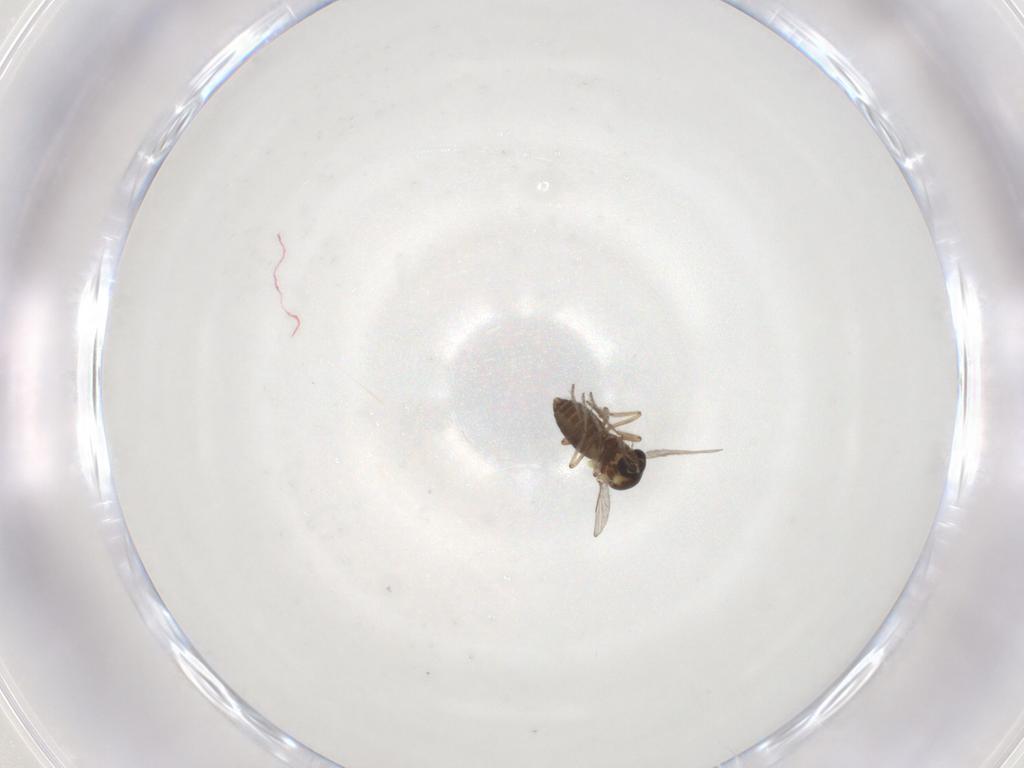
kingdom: Animalia
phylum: Arthropoda
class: Insecta
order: Diptera
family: Ceratopogonidae
